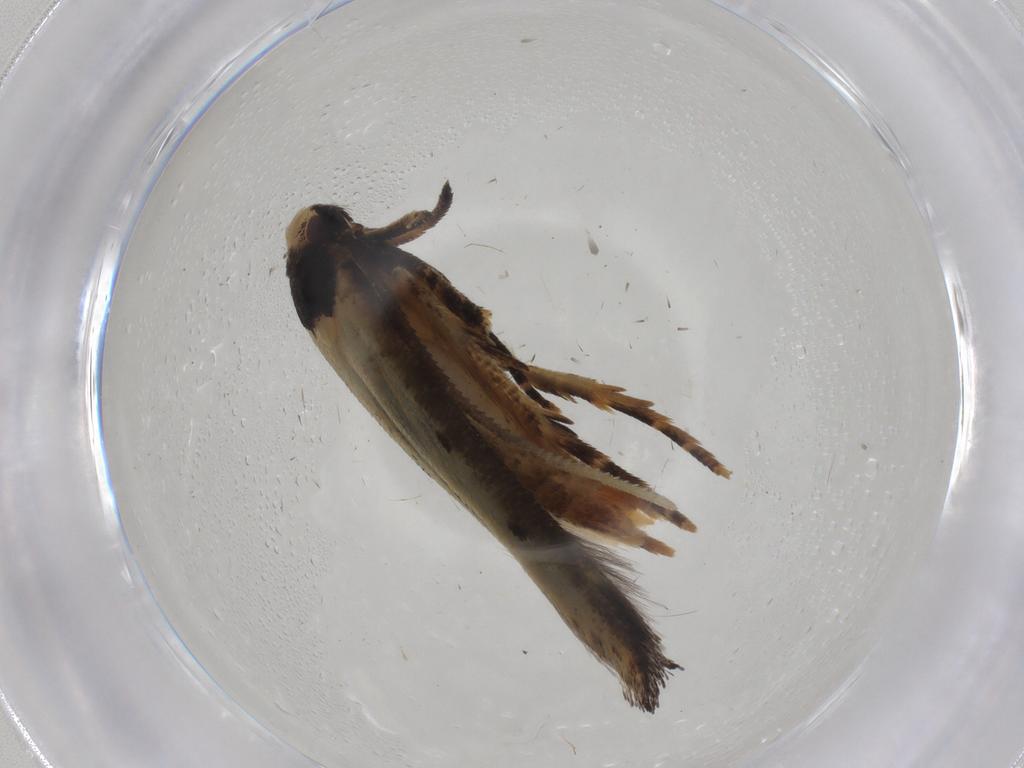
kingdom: Animalia
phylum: Arthropoda
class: Insecta
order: Lepidoptera
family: Cosmopterigidae
